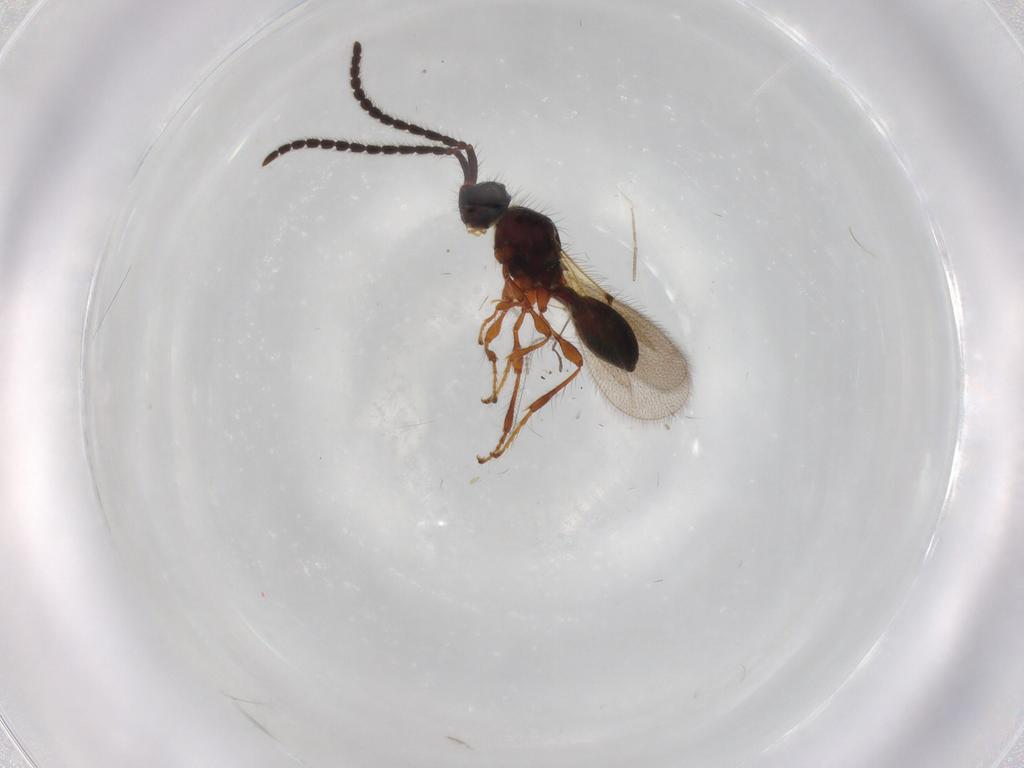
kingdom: Animalia
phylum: Arthropoda
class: Insecta
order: Hymenoptera
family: Diapriidae
